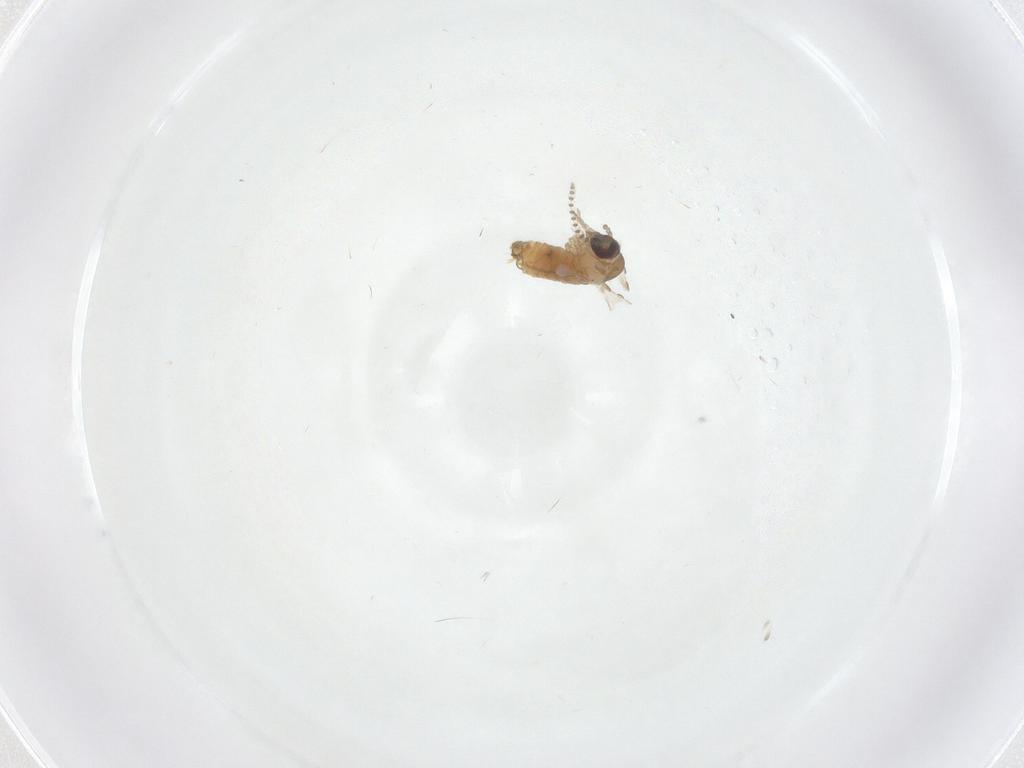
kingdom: Animalia
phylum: Arthropoda
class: Insecta
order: Diptera
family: Psychodidae
